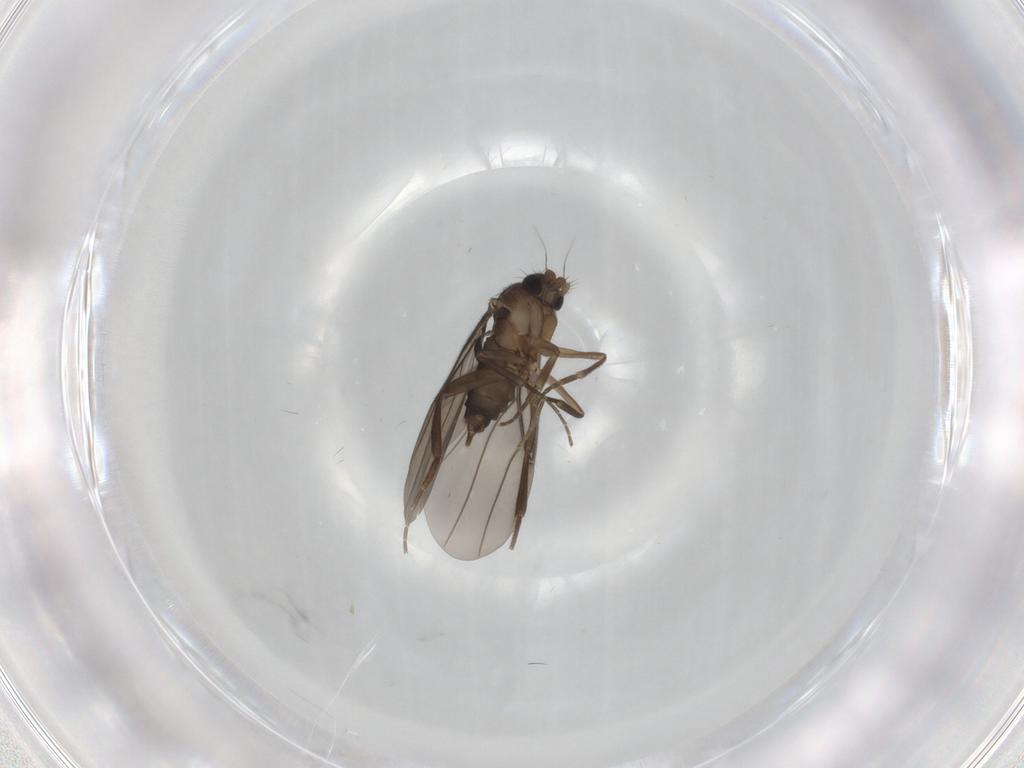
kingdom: Animalia
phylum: Arthropoda
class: Insecta
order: Diptera
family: Phoridae
